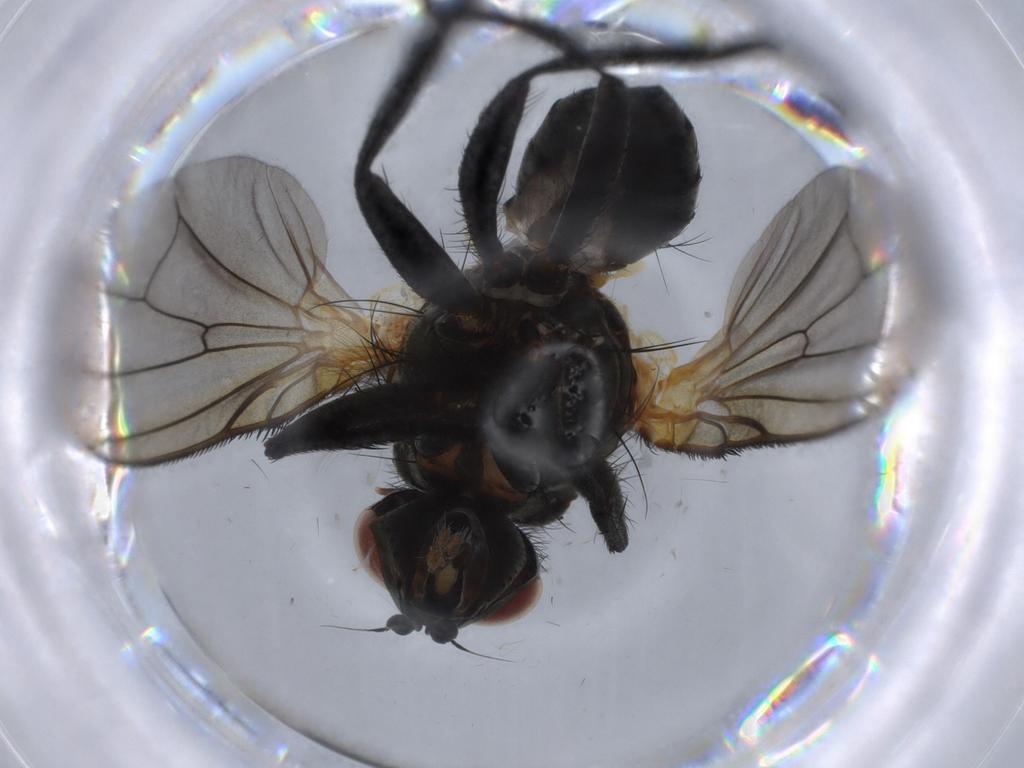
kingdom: Animalia
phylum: Arthropoda
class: Insecta
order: Diptera
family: Anthomyiidae
